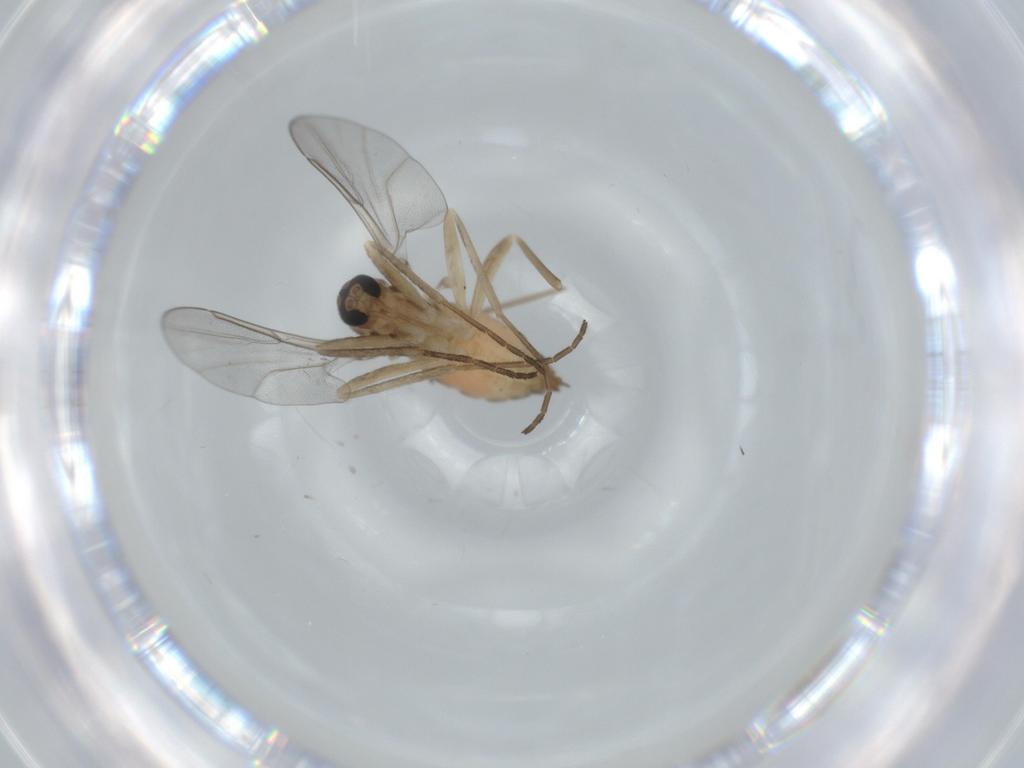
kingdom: Animalia
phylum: Arthropoda
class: Insecta
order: Diptera
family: Cecidomyiidae
